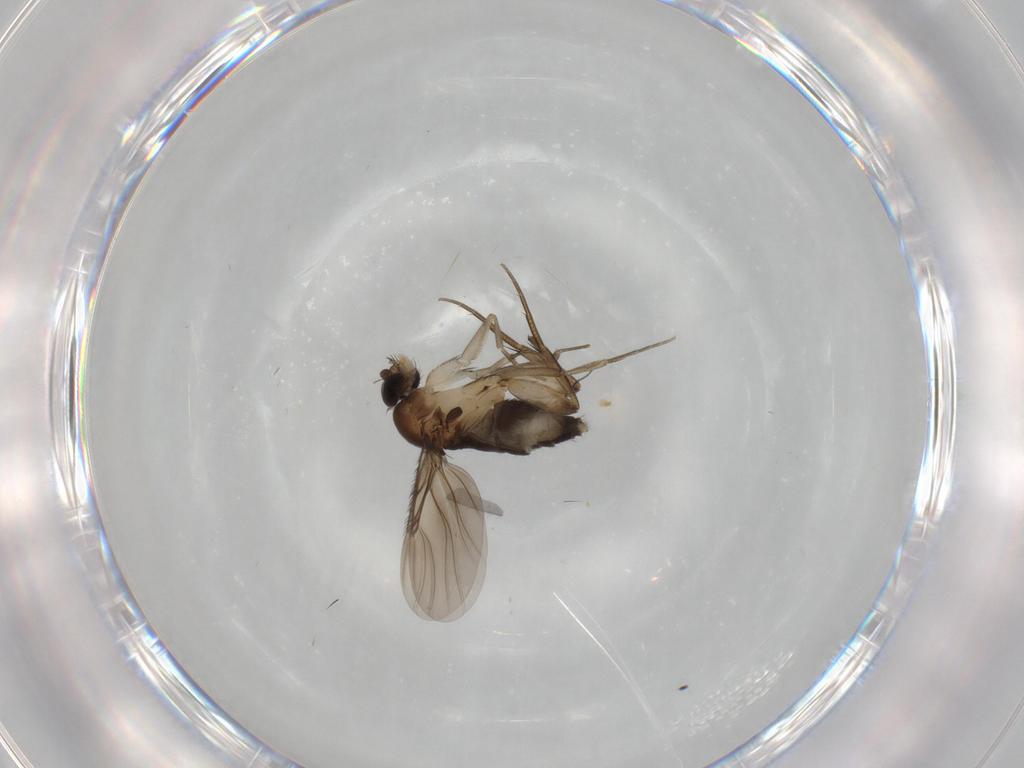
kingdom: Animalia
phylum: Arthropoda
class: Insecta
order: Diptera
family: Phoridae
